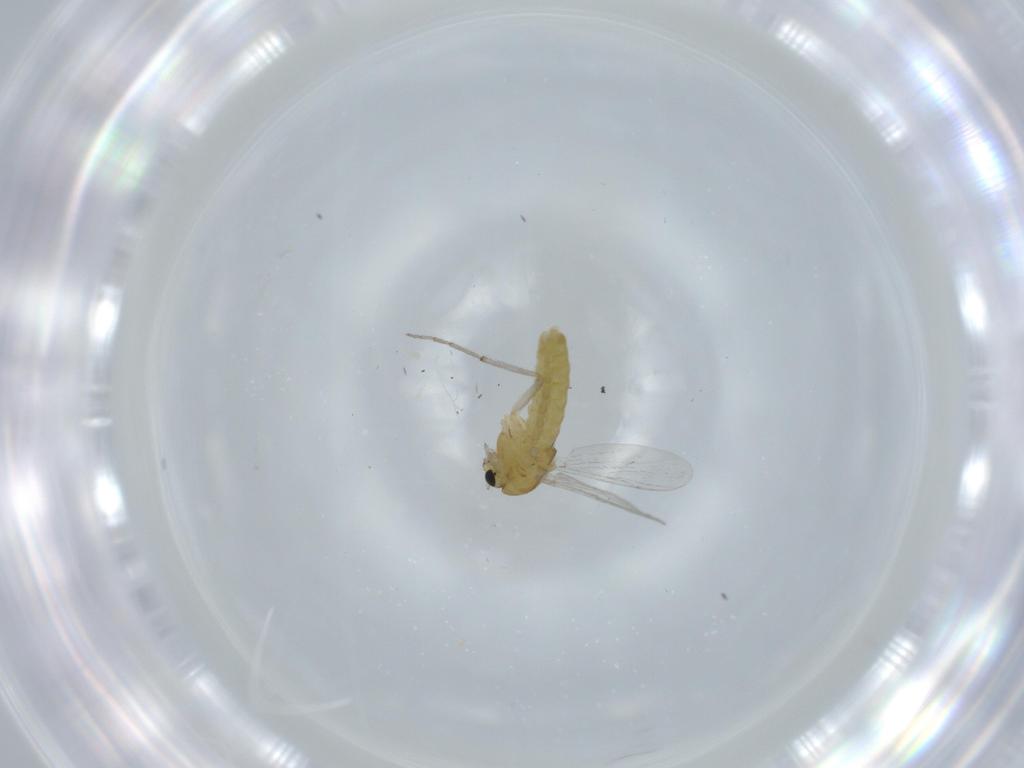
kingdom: Animalia
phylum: Arthropoda
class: Insecta
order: Diptera
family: Chironomidae
